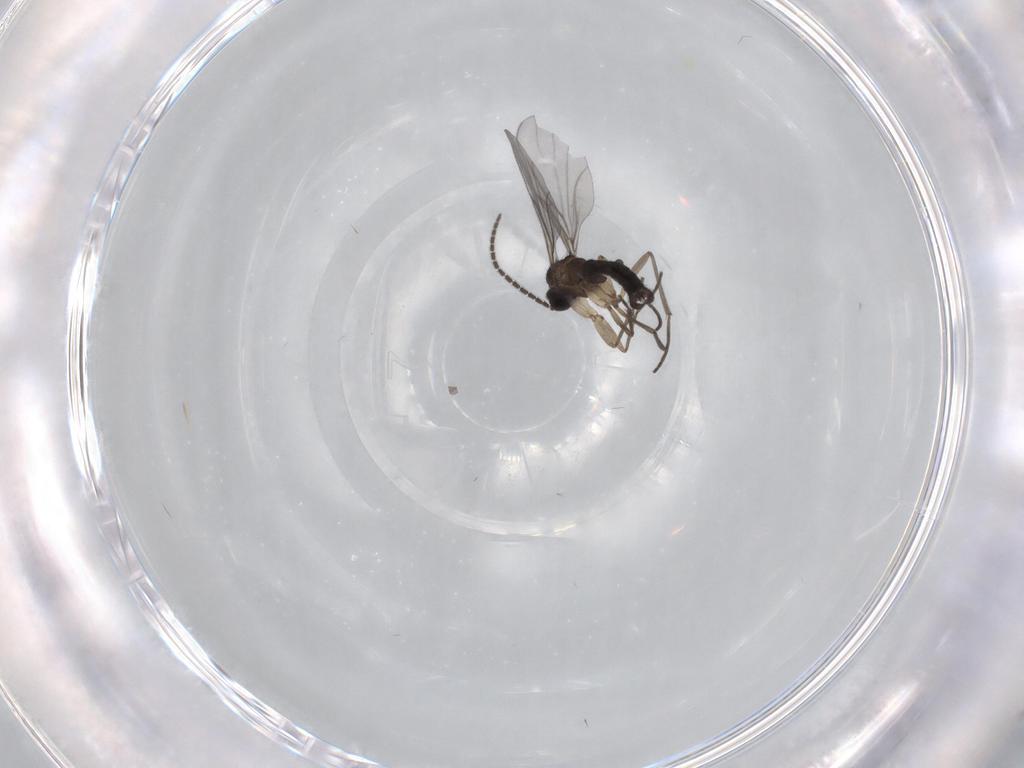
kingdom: Animalia
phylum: Arthropoda
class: Insecta
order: Diptera
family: Sciaridae
